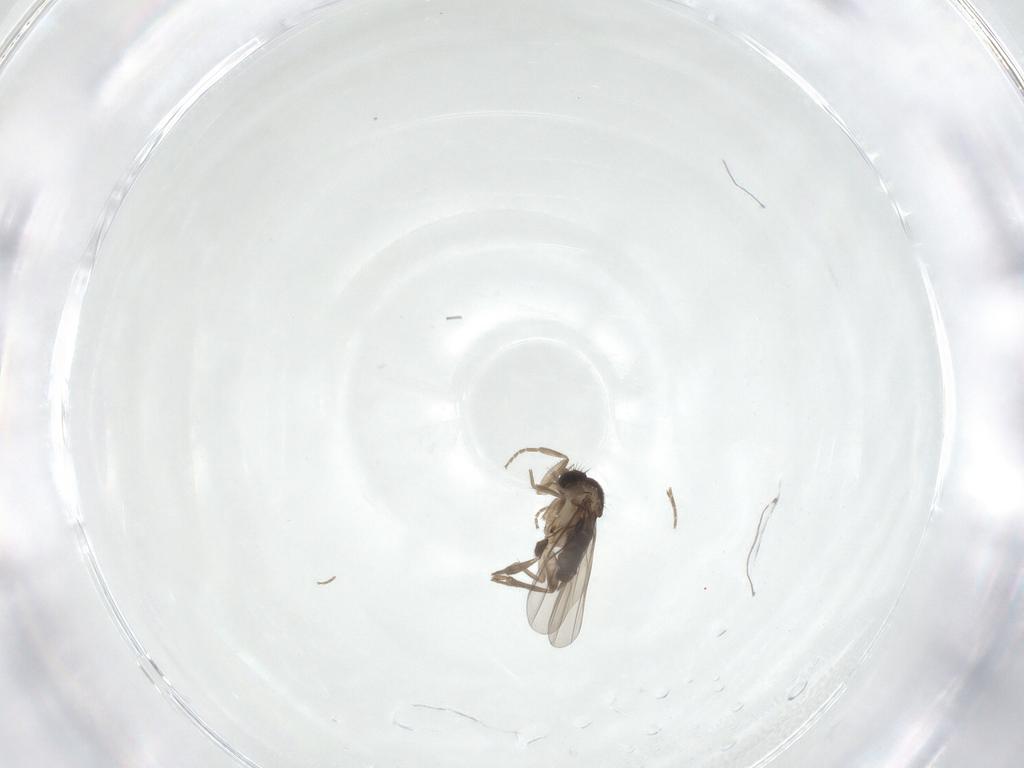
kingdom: Animalia
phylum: Arthropoda
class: Insecta
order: Diptera
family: Phoridae
